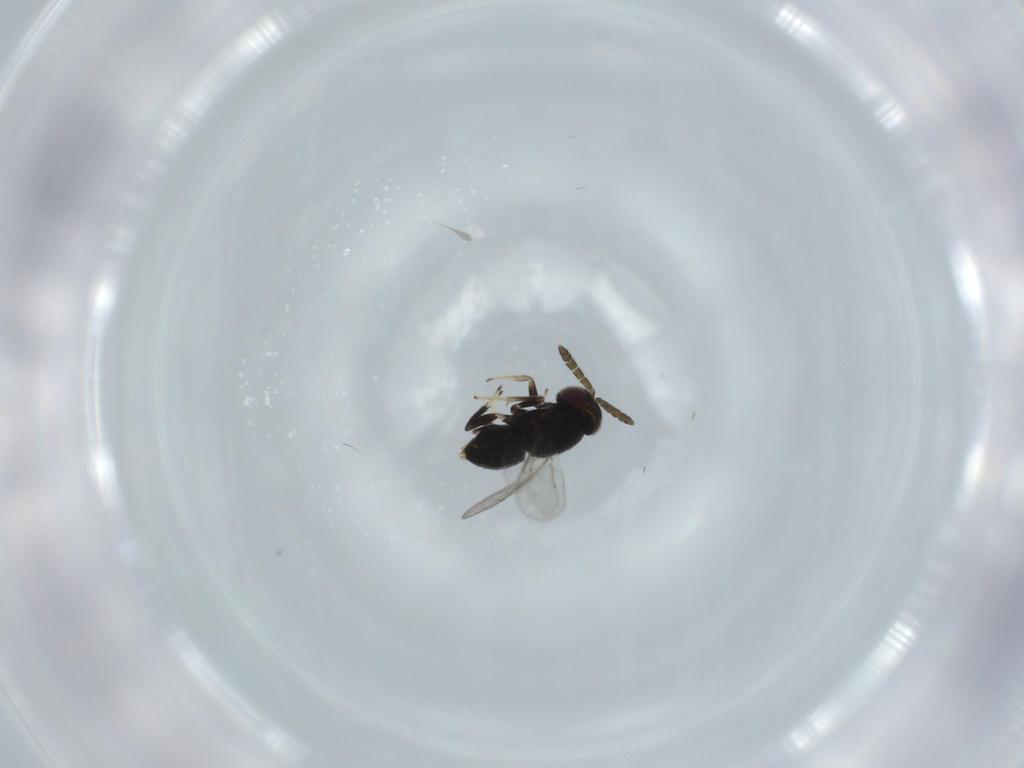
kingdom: Animalia
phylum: Arthropoda
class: Insecta
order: Hymenoptera
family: Aphelinidae
